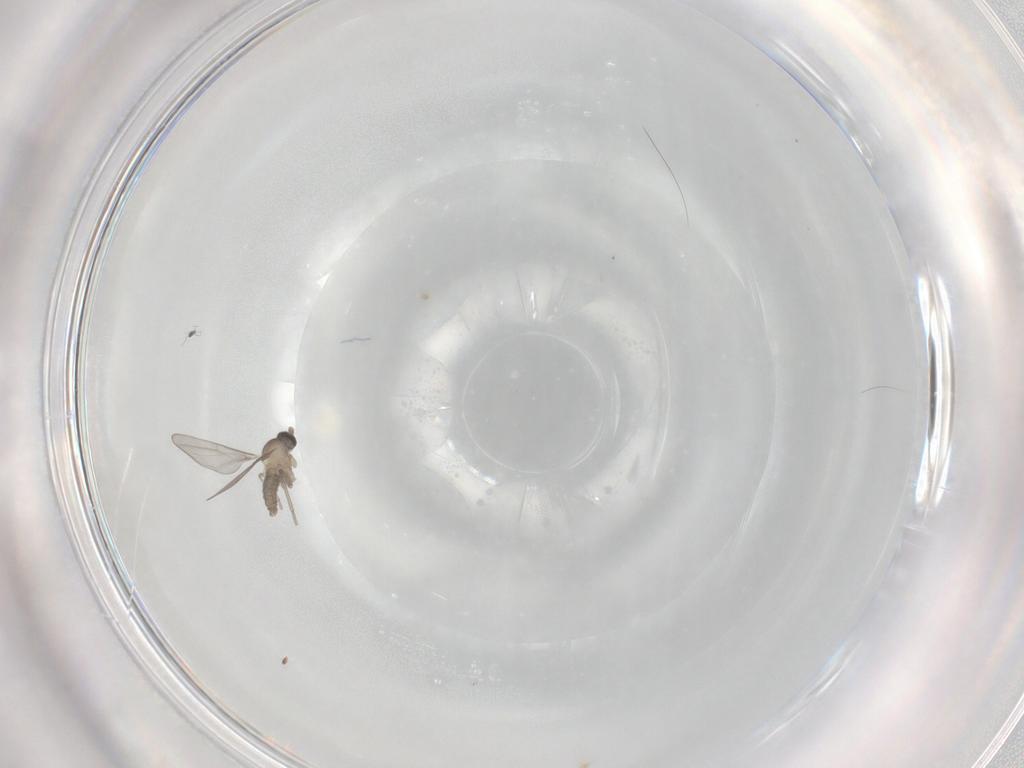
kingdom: Animalia
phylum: Arthropoda
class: Insecta
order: Diptera
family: Cecidomyiidae
